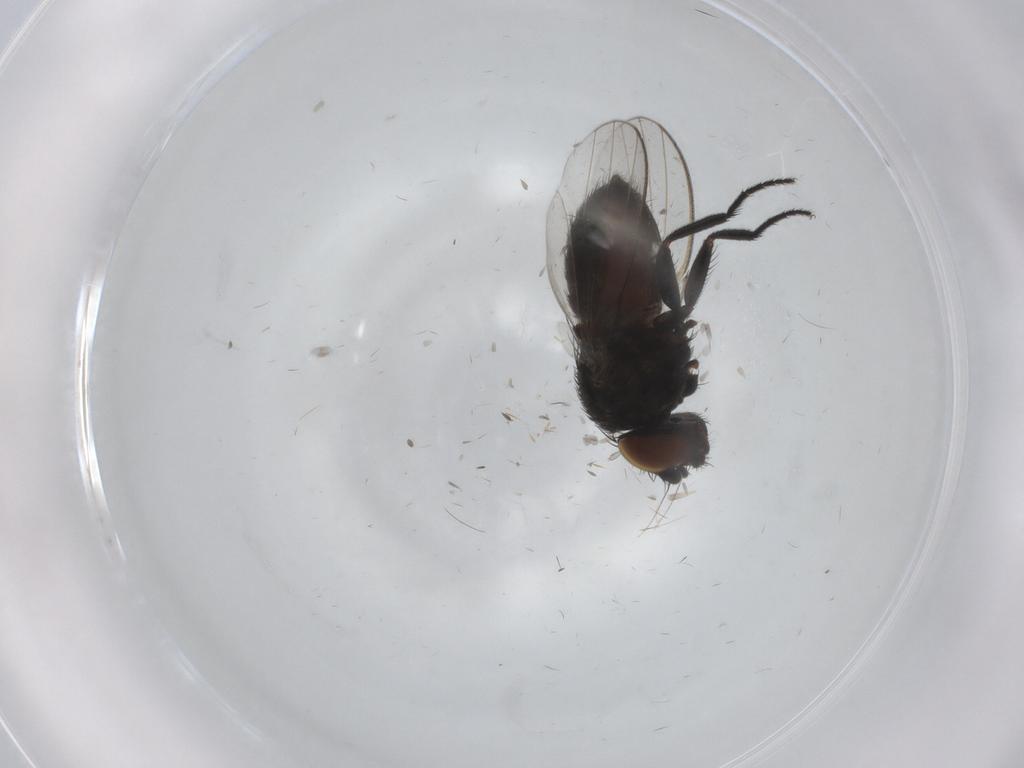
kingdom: Animalia
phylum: Arthropoda
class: Insecta
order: Diptera
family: Milichiidae
